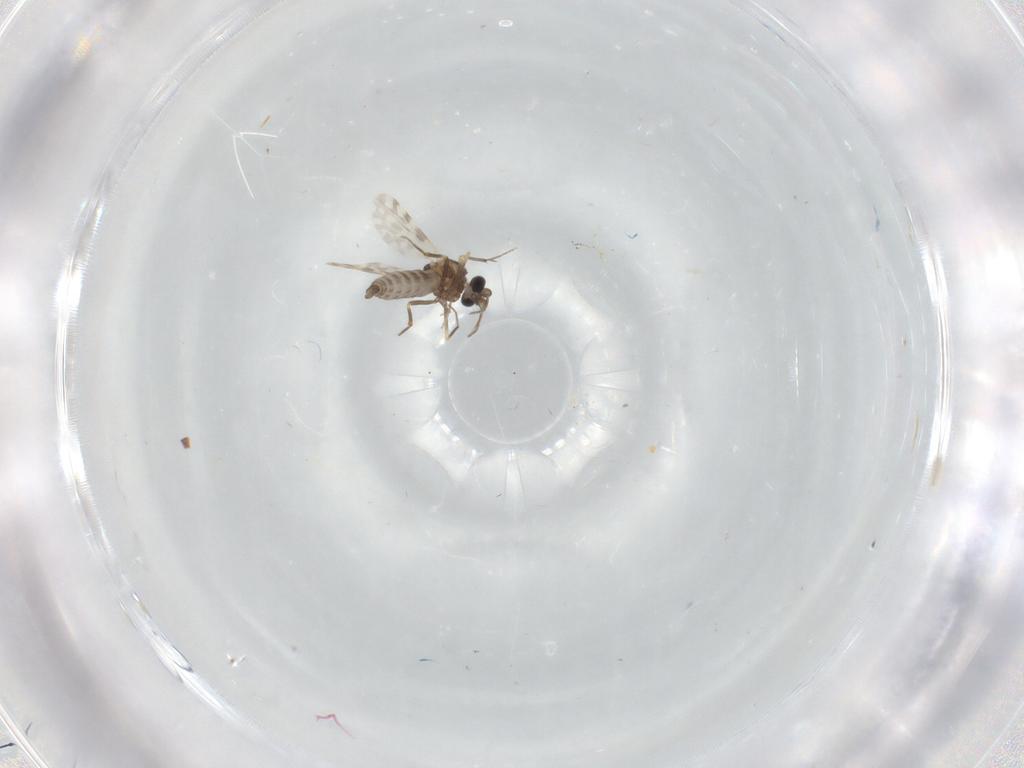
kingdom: Animalia
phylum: Arthropoda
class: Insecta
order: Diptera
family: Ceratopogonidae
